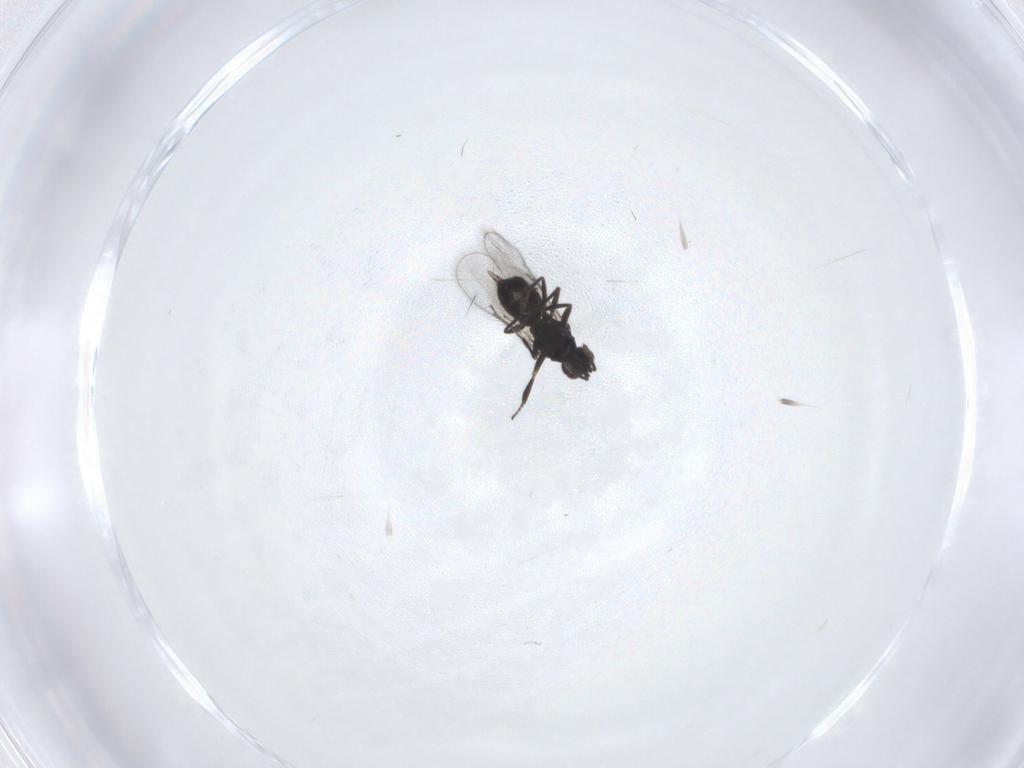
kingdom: Animalia
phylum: Arthropoda
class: Insecta
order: Hymenoptera
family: Eulophidae
